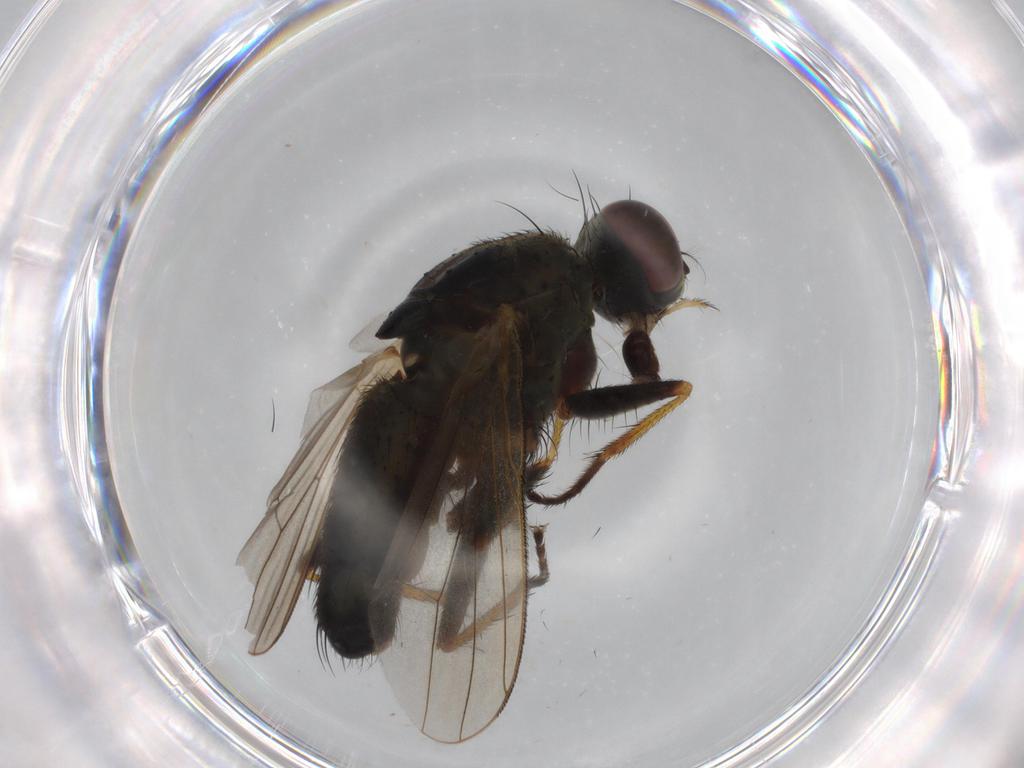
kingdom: Animalia
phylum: Arthropoda
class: Insecta
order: Diptera
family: Muscidae
